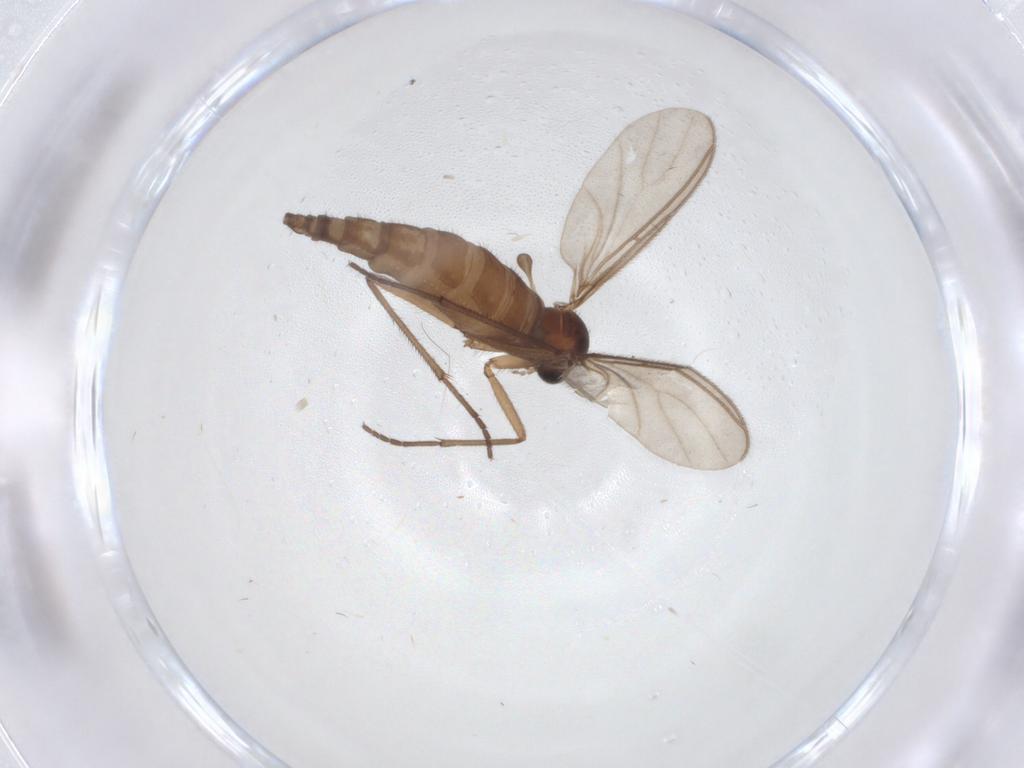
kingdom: Animalia
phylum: Arthropoda
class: Insecta
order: Diptera
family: Sciaridae
